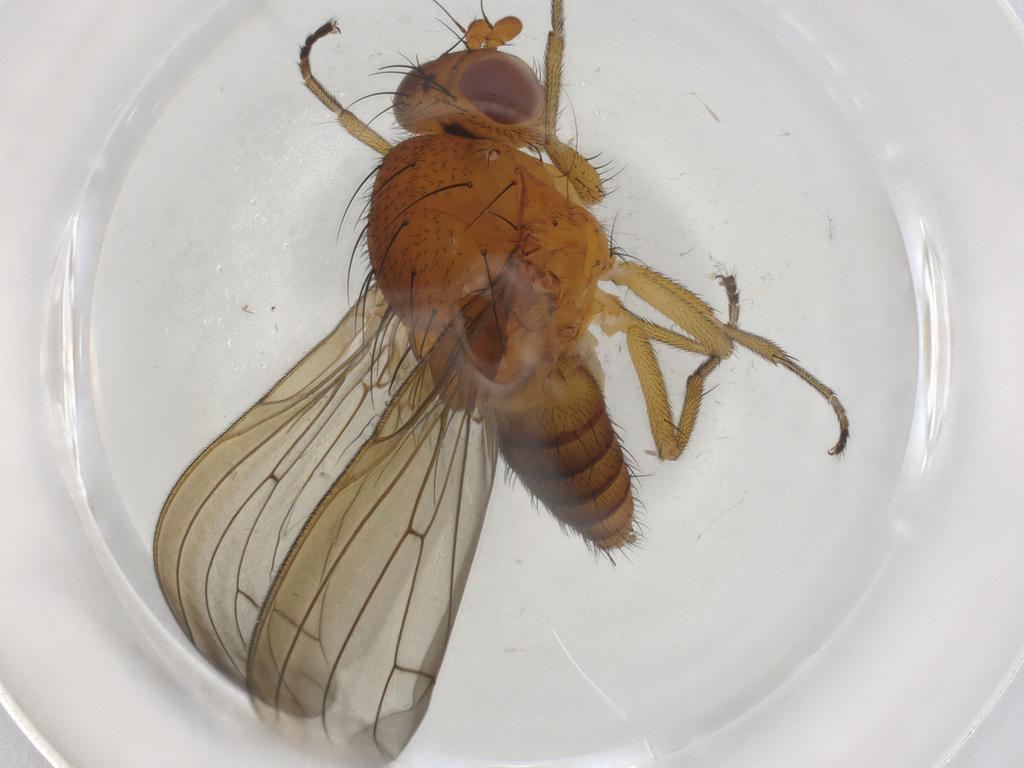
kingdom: Animalia
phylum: Arthropoda
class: Insecta
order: Diptera
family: Lauxaniidae
